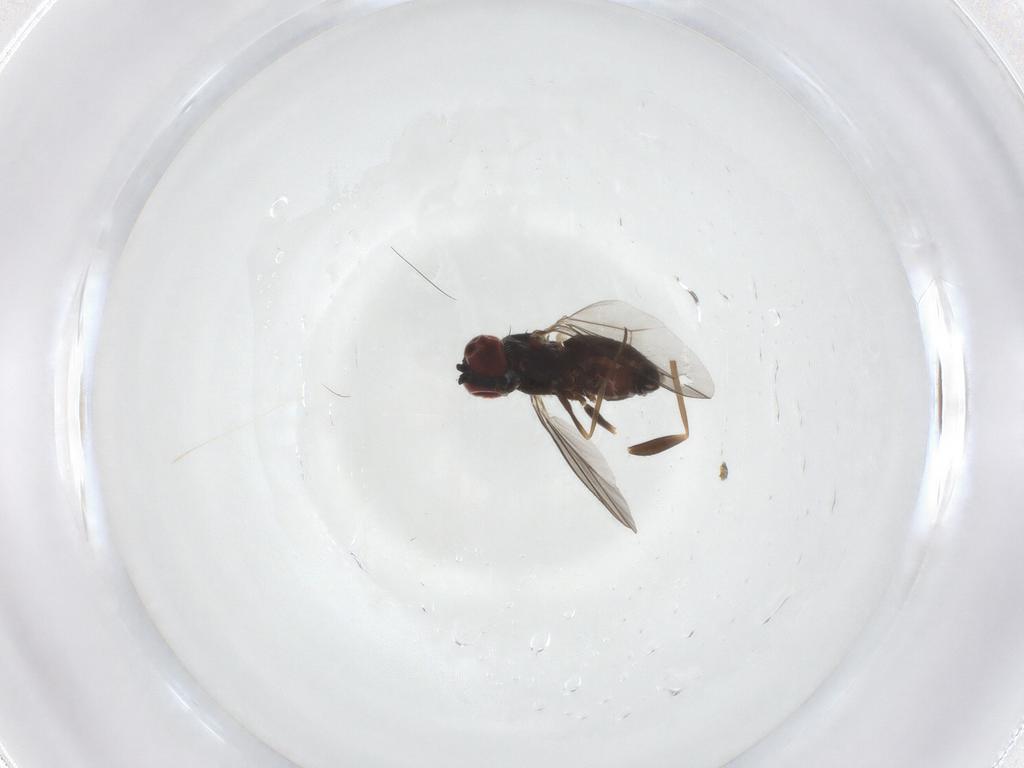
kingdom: Animalia
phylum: Arthropoda
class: Insecta
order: Diptera
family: Dolichopodidae
